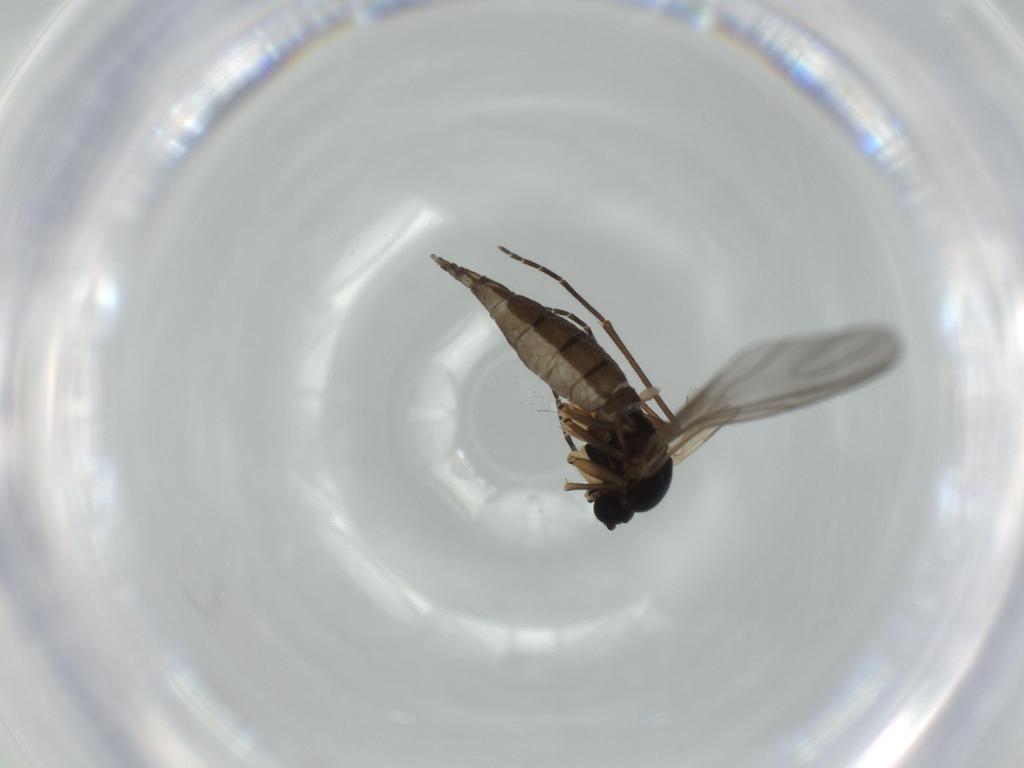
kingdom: Animalia
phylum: Arthropoda
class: Insecta
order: Diptera
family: Sciaridae
